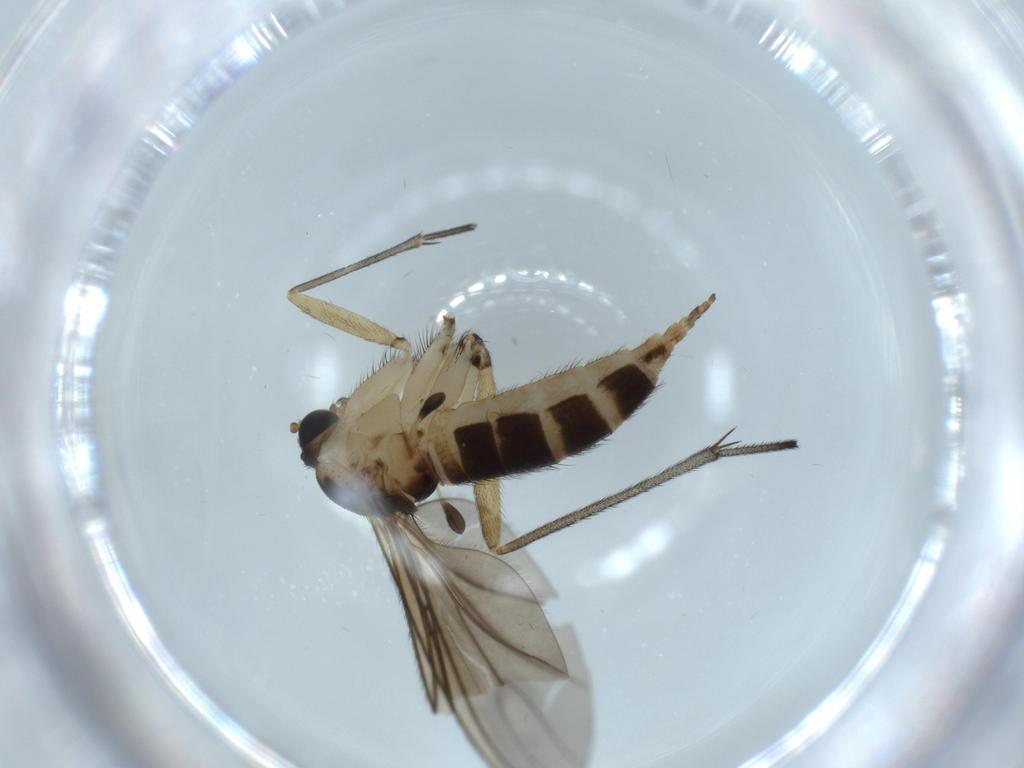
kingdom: Animalia
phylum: Arthropoda
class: Insecta
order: Diptera
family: Sciaridae
